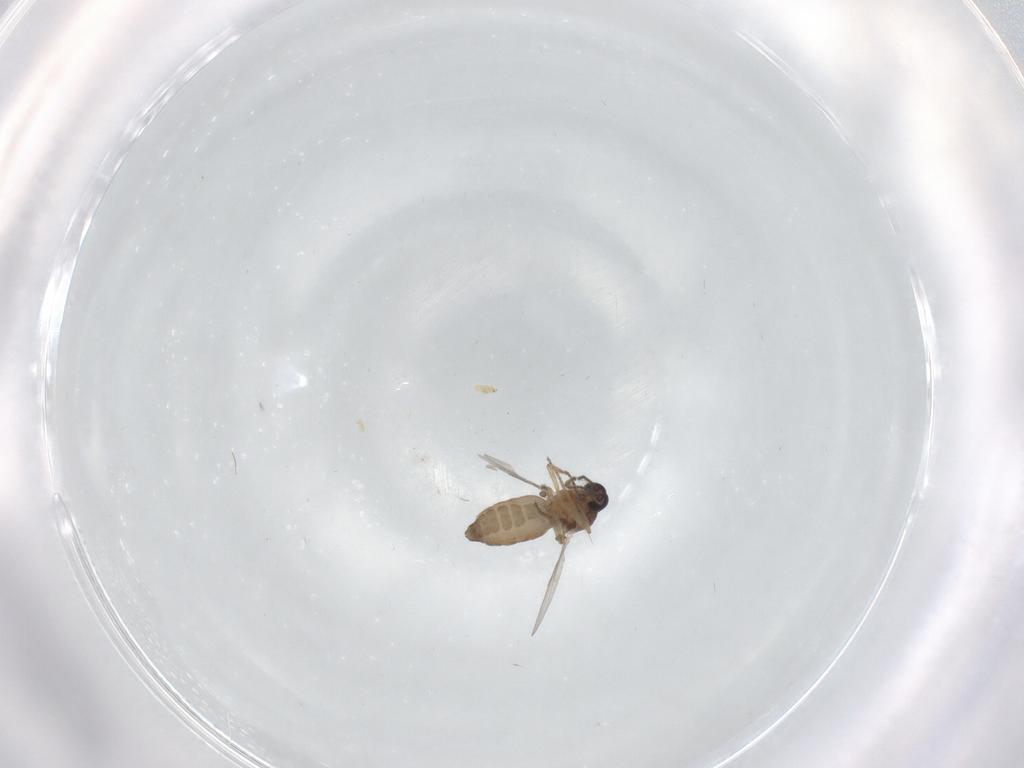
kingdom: Animalia
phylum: Arthropoda
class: Insecta
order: Diptera
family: Ceratopogonidae
